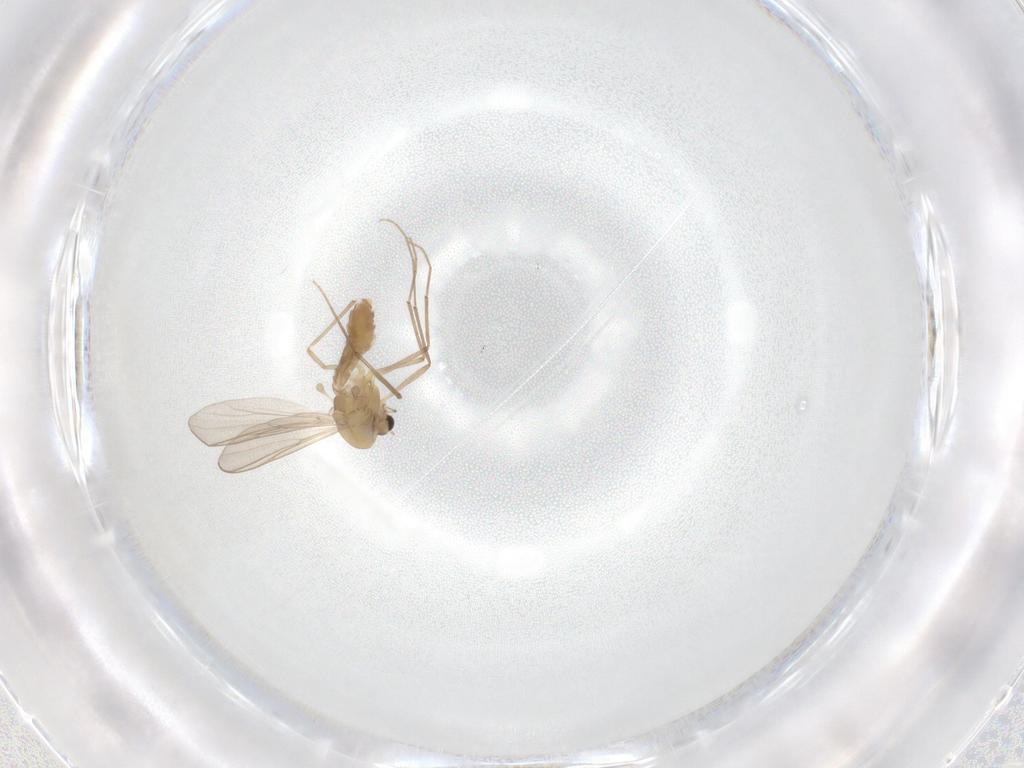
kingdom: Animalia
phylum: Arthropoda
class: Insecta
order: Diptera
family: Chironomidae
